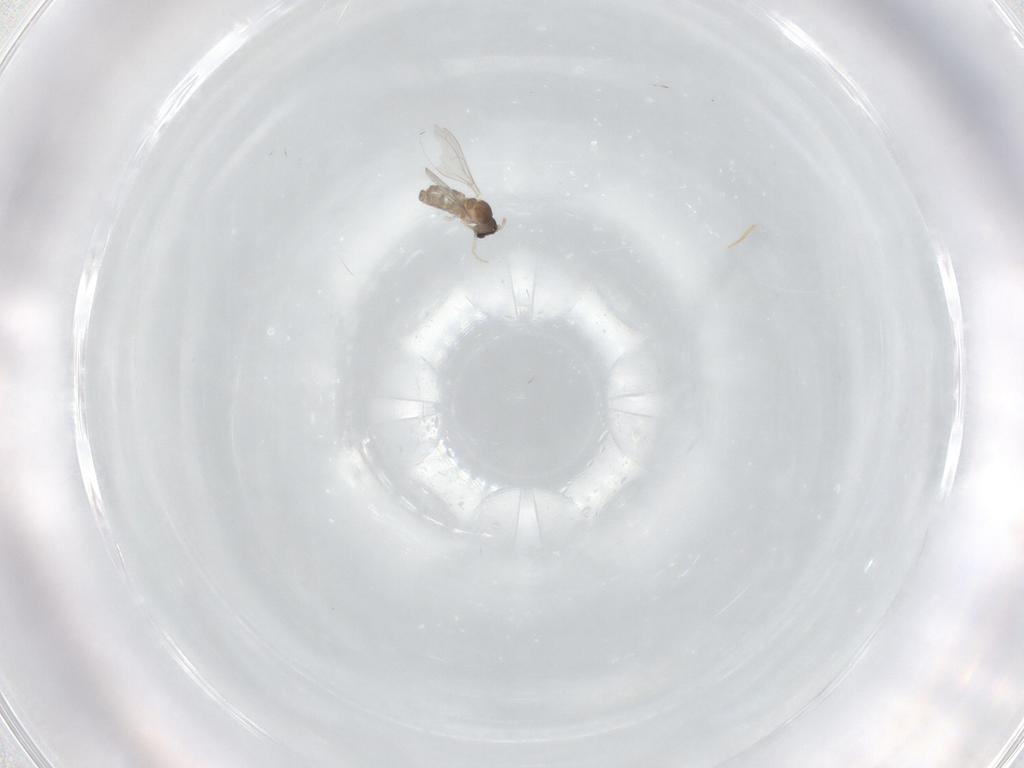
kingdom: Animalia
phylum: Arthropoda
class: Insecta
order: Diptera
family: Cecidomyiidae
